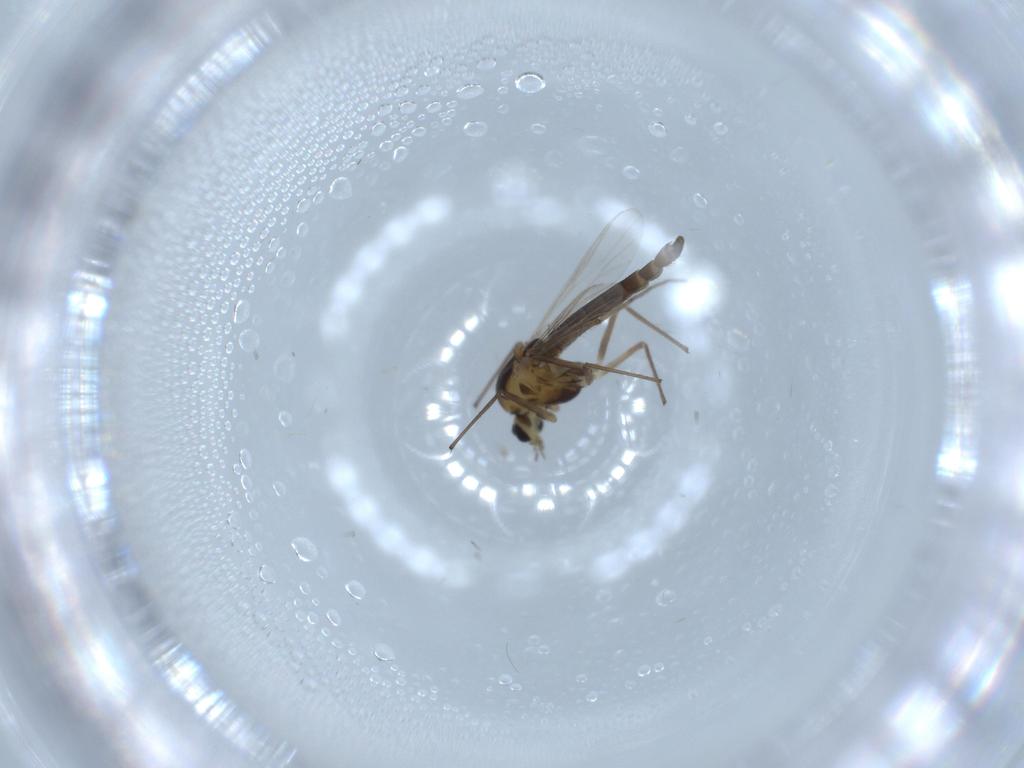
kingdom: Animalia
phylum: Arthropoda
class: Insecta
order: Diptera
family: Chironomidae
